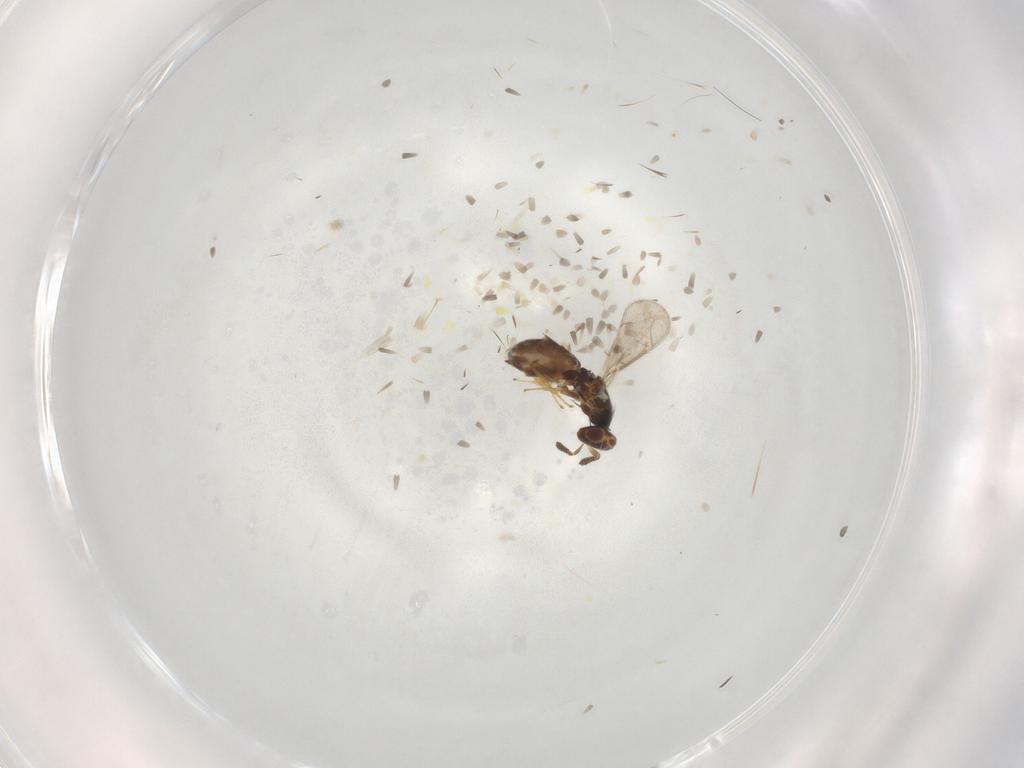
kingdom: Animalia
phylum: Arthropoda
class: Insecta
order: Hymenoptera
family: Eulophidae
